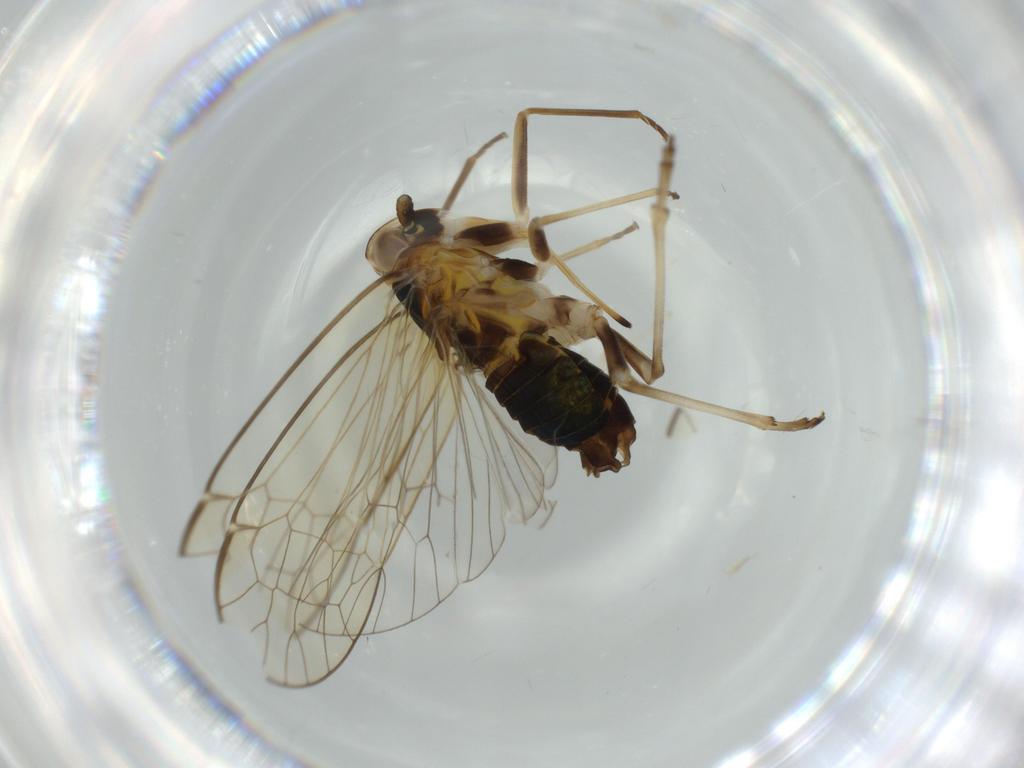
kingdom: Animalia
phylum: Arthropoda
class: Insecta
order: Hemiptera
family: Kinnaridae
